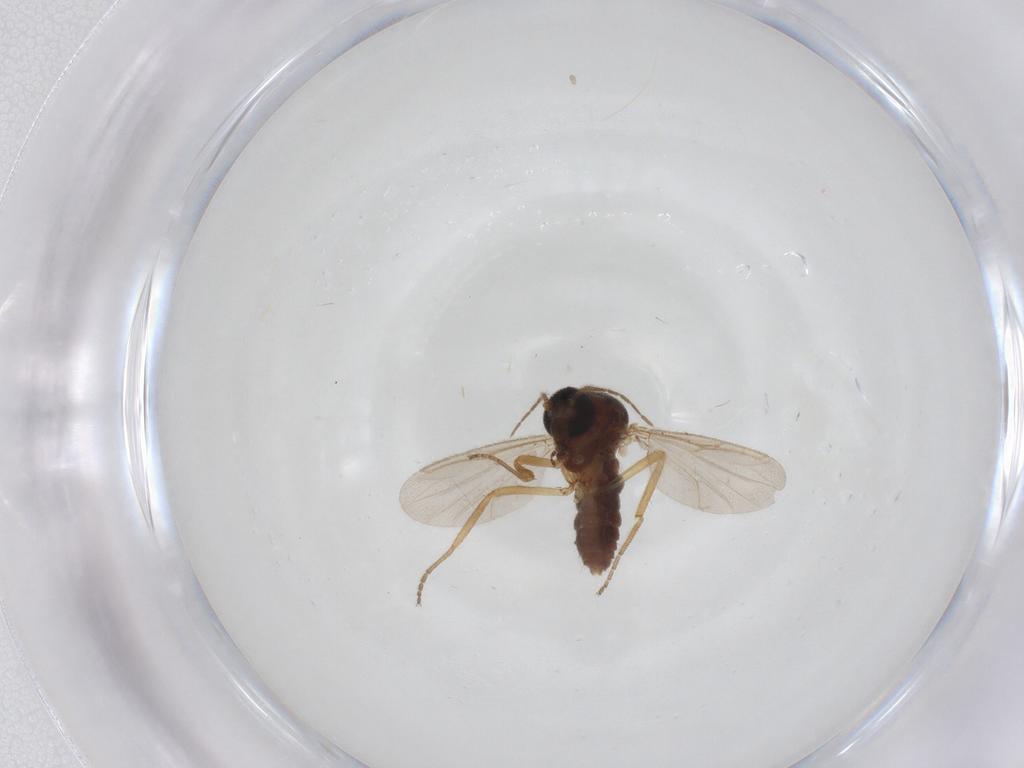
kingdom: Animalia
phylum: Arthropoda
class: Insecta
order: Diptera
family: Ceratopogonidae
